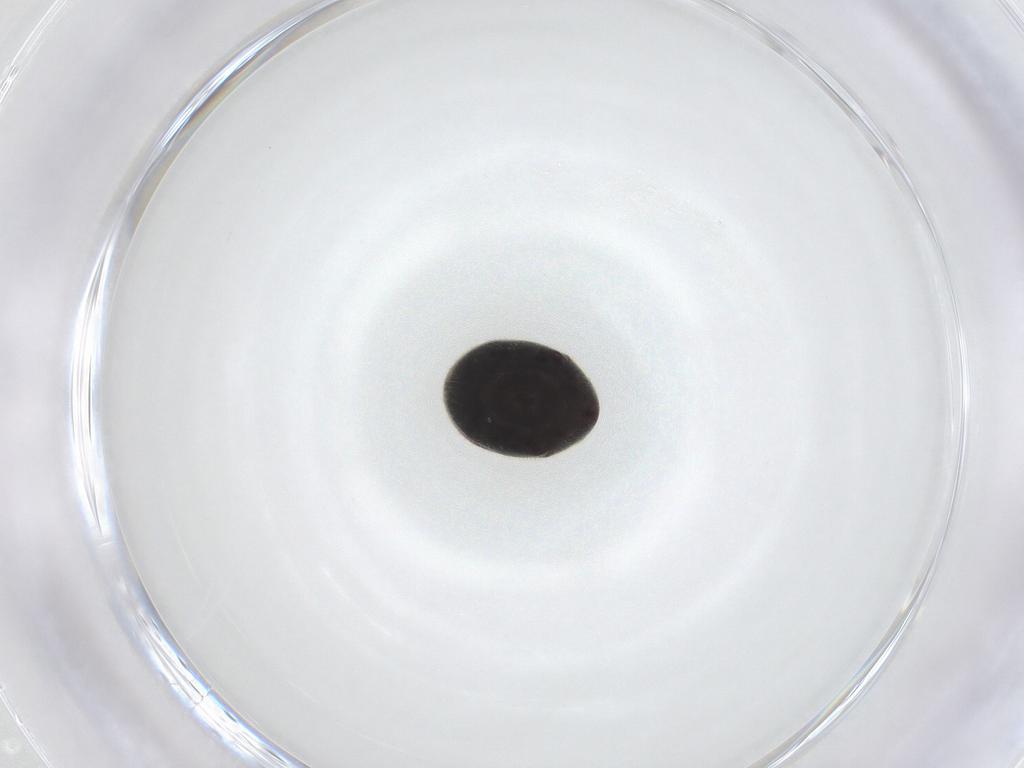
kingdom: Animalia
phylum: Arthropoda
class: Insecta
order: Coleoptera
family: Ptinidae
